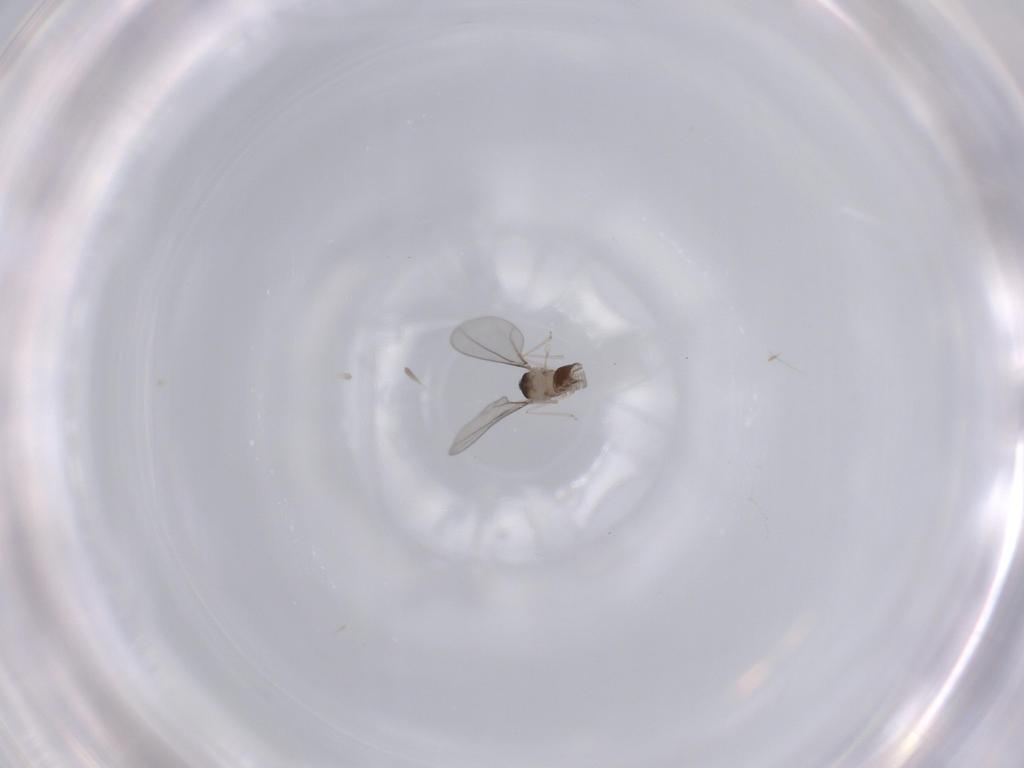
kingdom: Animalia
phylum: Arthropoda
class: Insecta
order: Diptera
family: Cecidomyiidae
